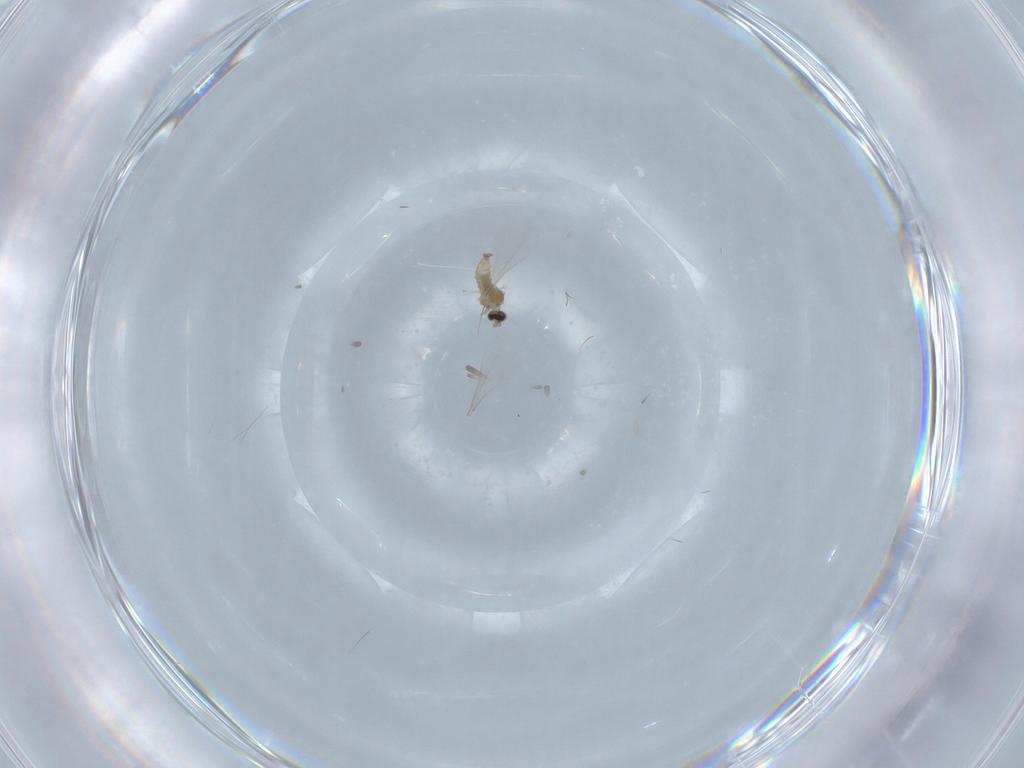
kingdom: Animalia
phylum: Arthropoda
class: Insecta
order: Diptera
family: Cecidomyiidae
